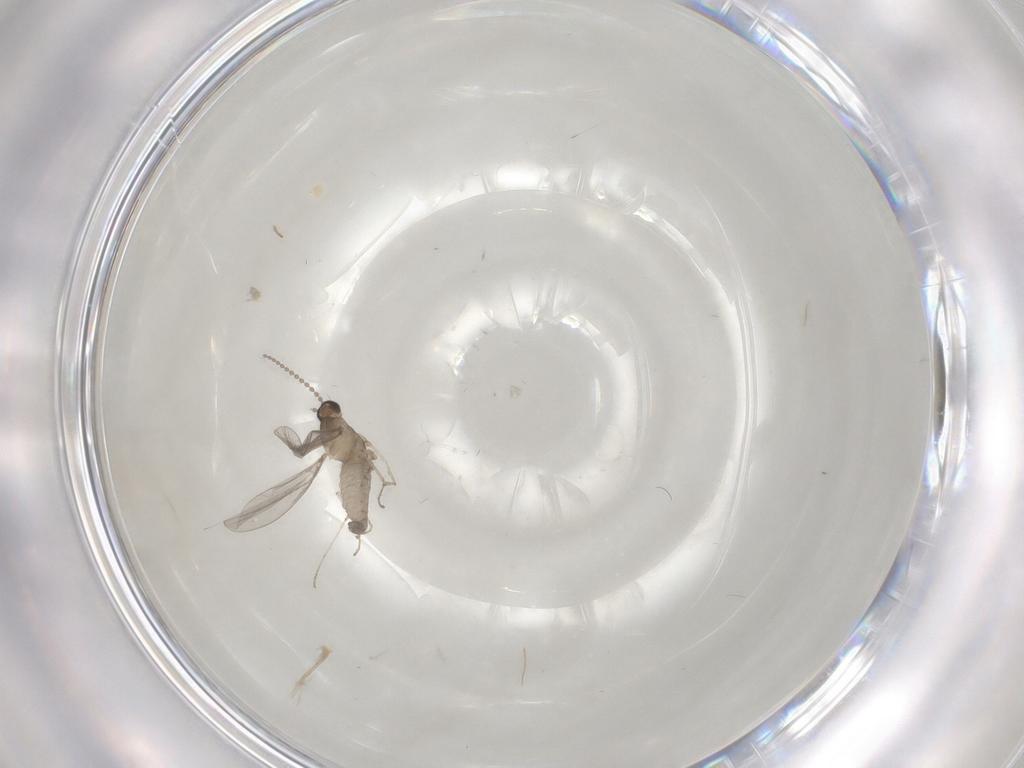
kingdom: Animalia
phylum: Arthropoda
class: Insecta
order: Diptera
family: Cecidomyiidae
